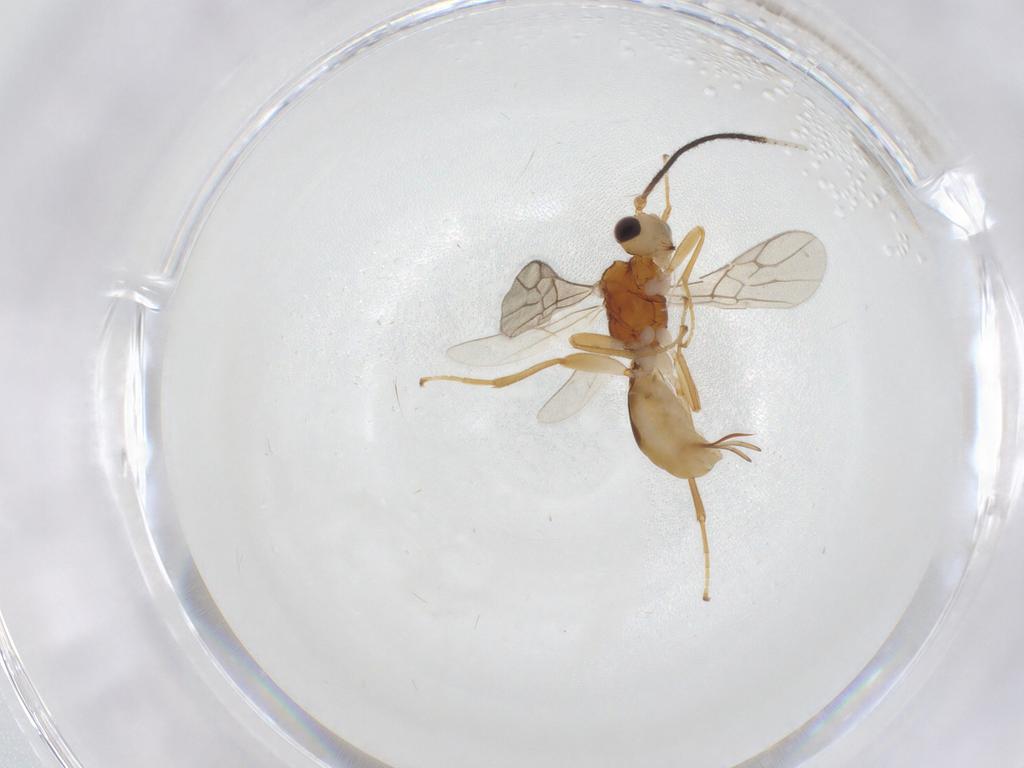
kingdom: Animalia
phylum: Arthropoda
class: Insecta
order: Hymenoptera
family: Braconidae
